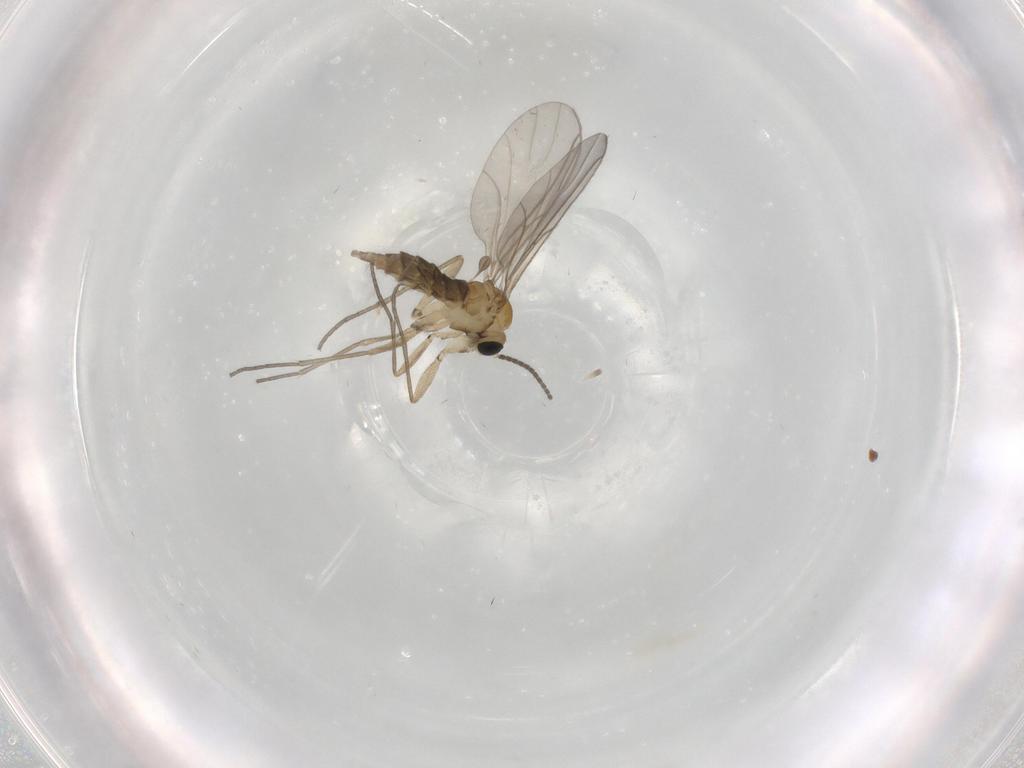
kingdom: Animalia
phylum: Arthropoda
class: Insecta
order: Diptera
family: Sciaridae
